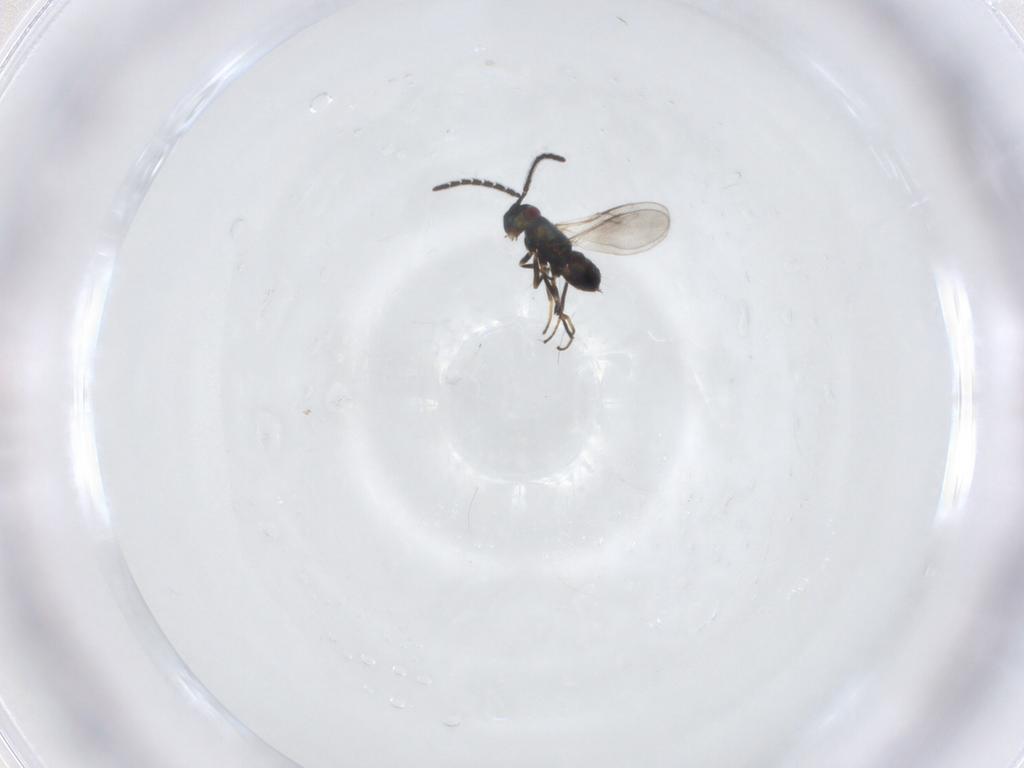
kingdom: Animalia
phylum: Arthropoda
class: Insecta
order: Hymenoptera
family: Encyrtidae
